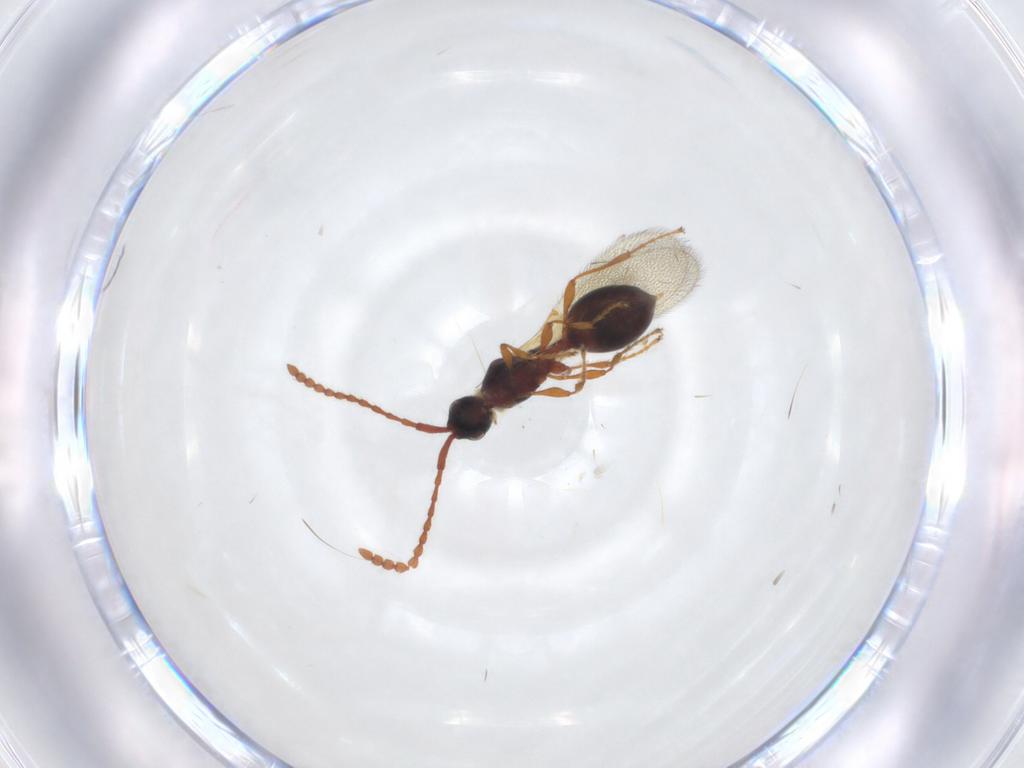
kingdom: Animalia
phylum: Arthropoda
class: Insecta
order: Hymenoptera
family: Diapriidae
